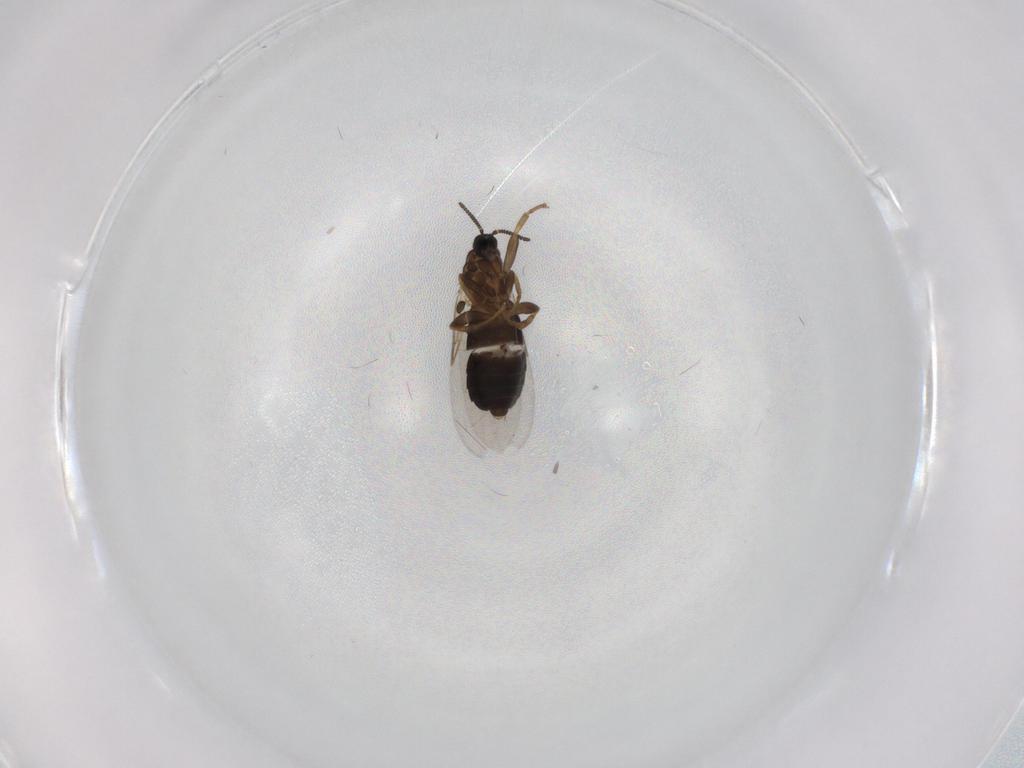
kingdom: Animalia
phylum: Arthropoda
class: Insecta
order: Diptera
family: Scatopsidae
